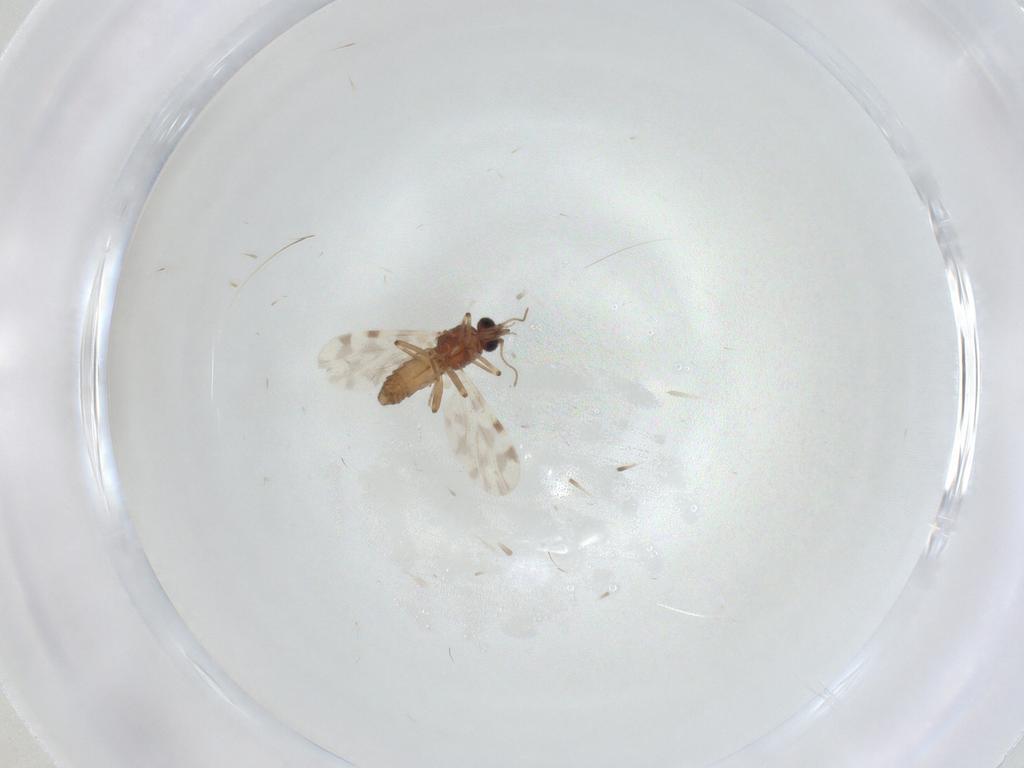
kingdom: Animalia
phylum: Arthropoda
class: Insecta
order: Diptera
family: Ceratopogonidae
